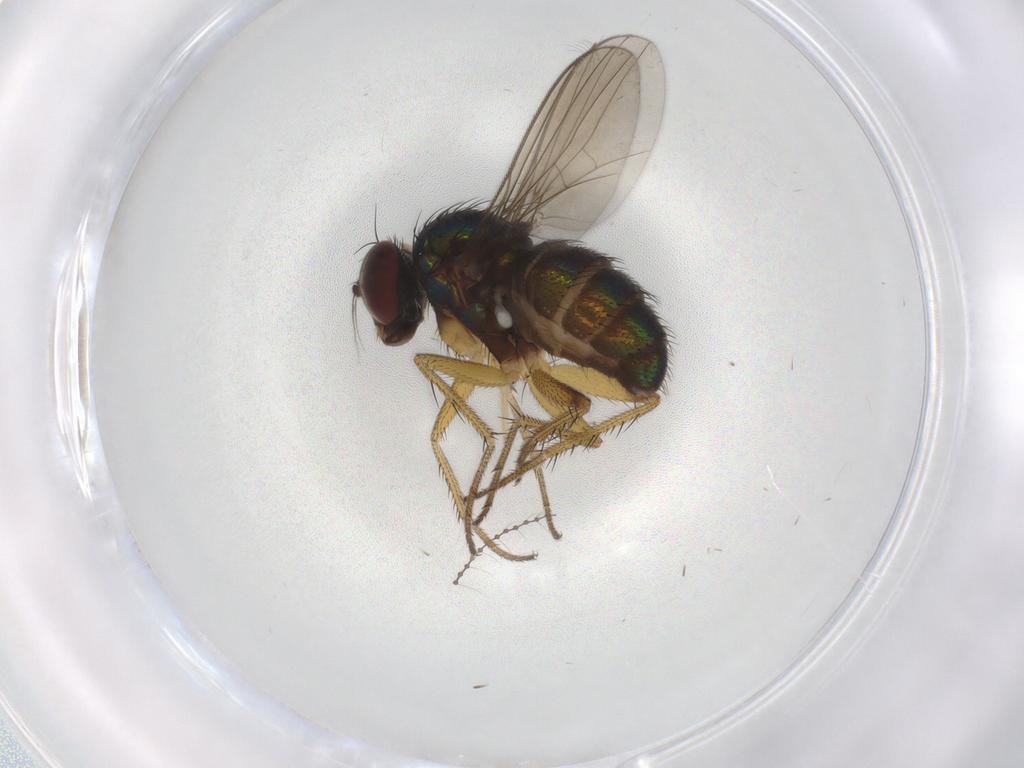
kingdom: Animalia
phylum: Arthropoda
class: Insecta
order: Diptera
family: Dolichopodidae
